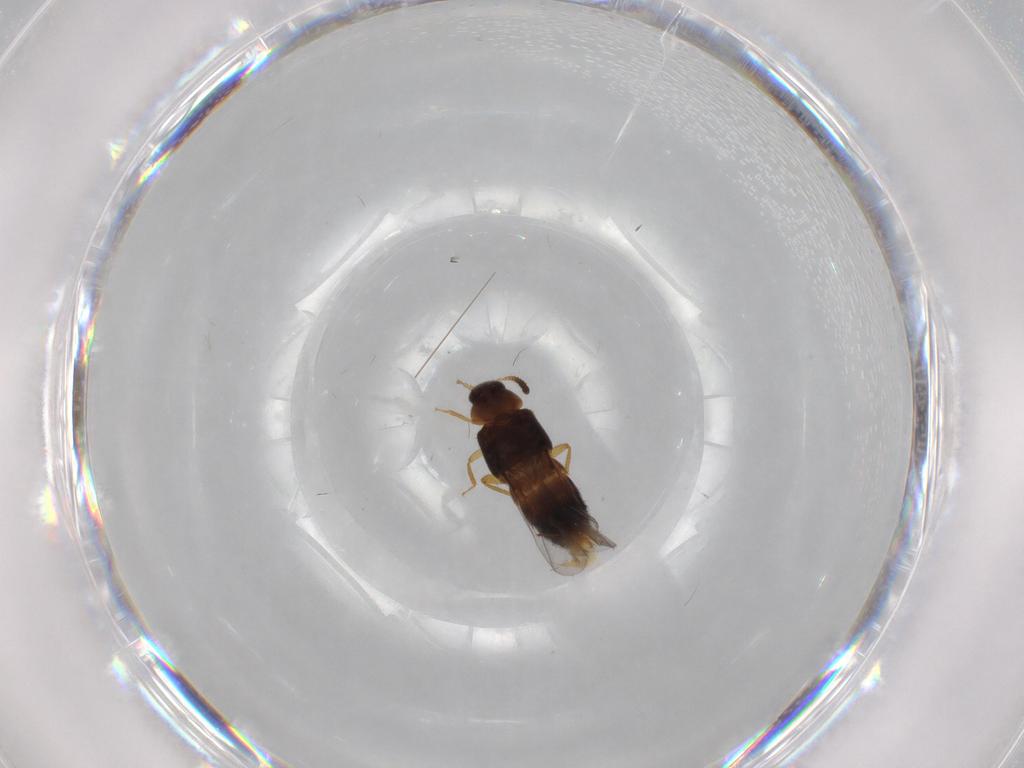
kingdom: Animalia
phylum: Arthropoda
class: Insecta
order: Coleoptera
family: Staphylinidae
